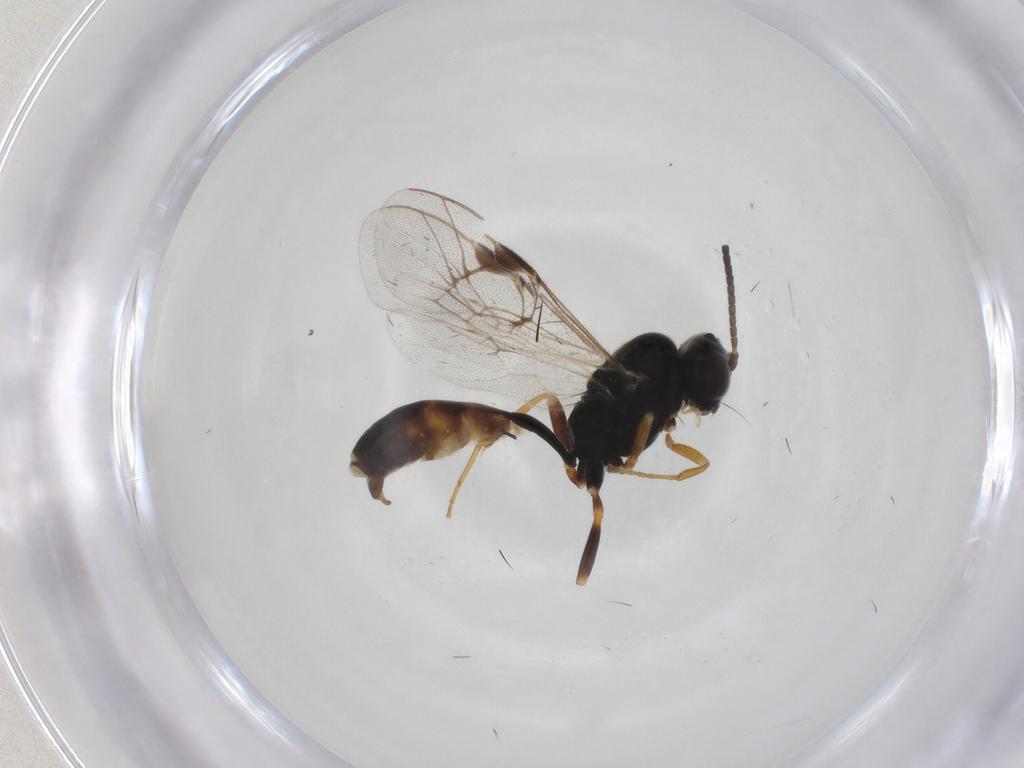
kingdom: Animalia
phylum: Arthropoda
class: Insecta
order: Hymenoptera
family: Ichneumonidae
